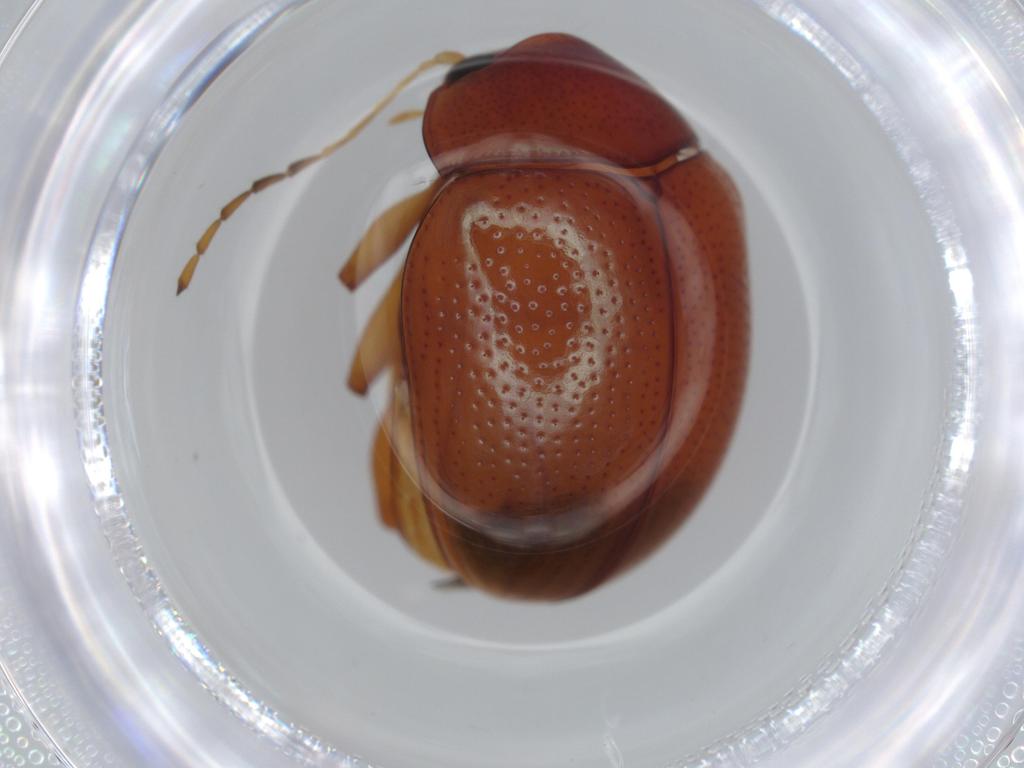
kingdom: Animalia
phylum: Arthropoda
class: Insecta
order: Coleoptera
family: Chrysomelidae
